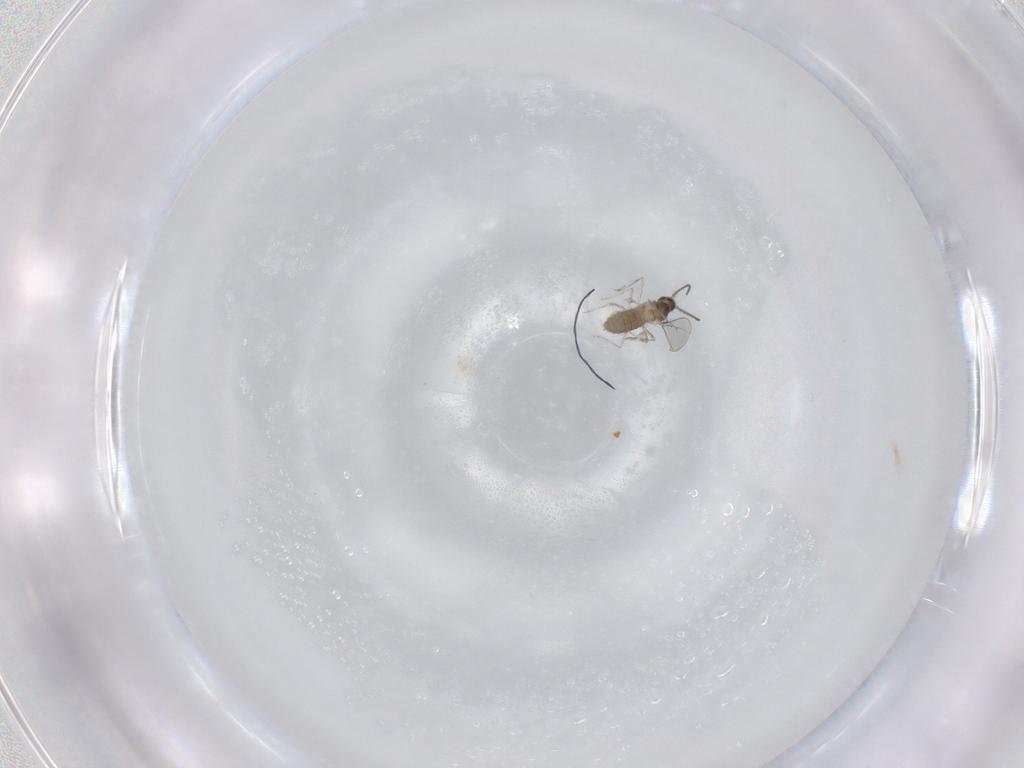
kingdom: Animalia
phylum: Arthropoda
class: Insecta
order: Diptera
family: Cecidomyiidae
